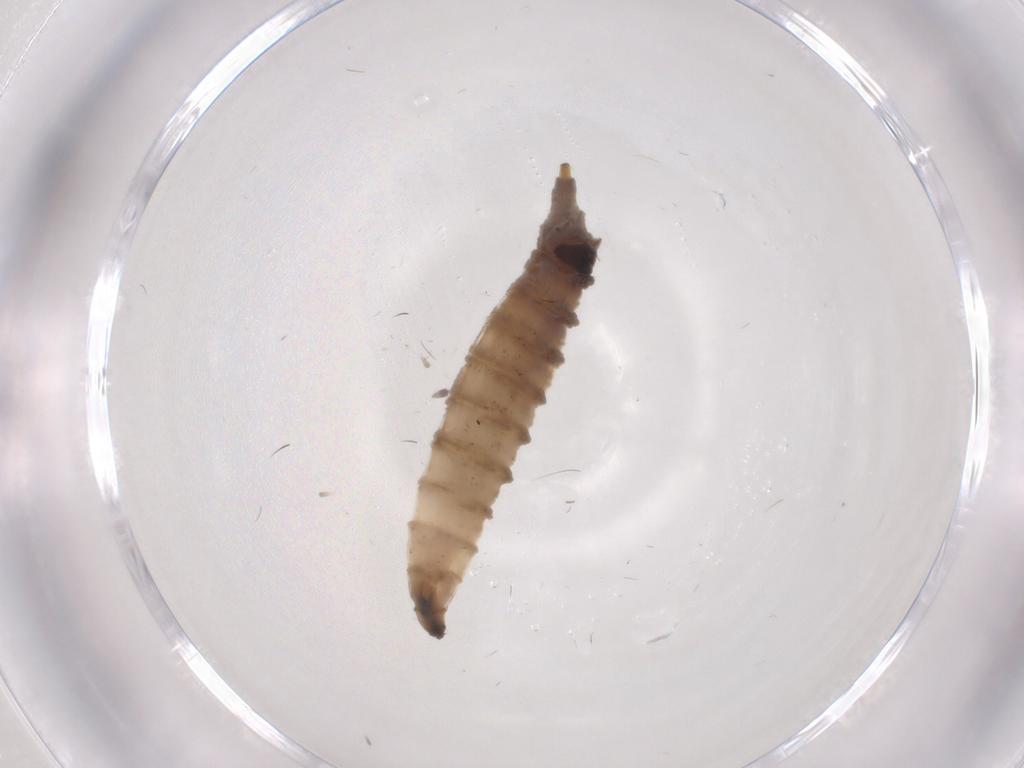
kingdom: Animalia
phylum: Arthropoda
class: Insecta
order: Diptera
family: Drosophilidae
